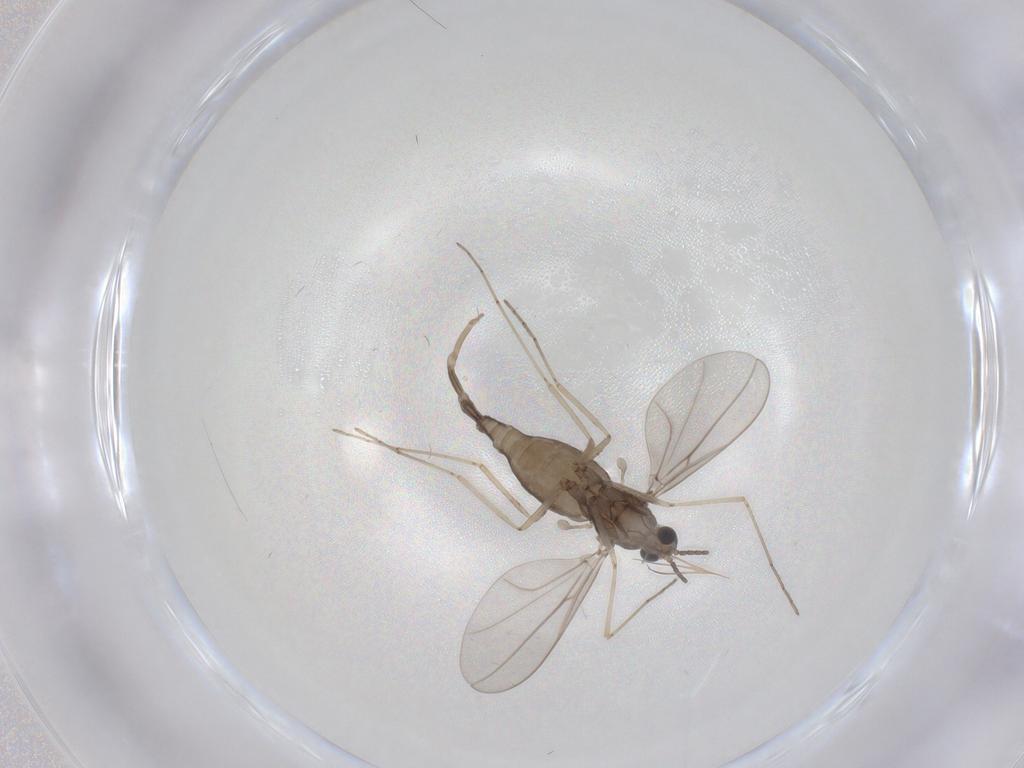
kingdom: Animalia
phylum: Arthropoda
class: Insecta
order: Diptera
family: Cecidomyiidae
